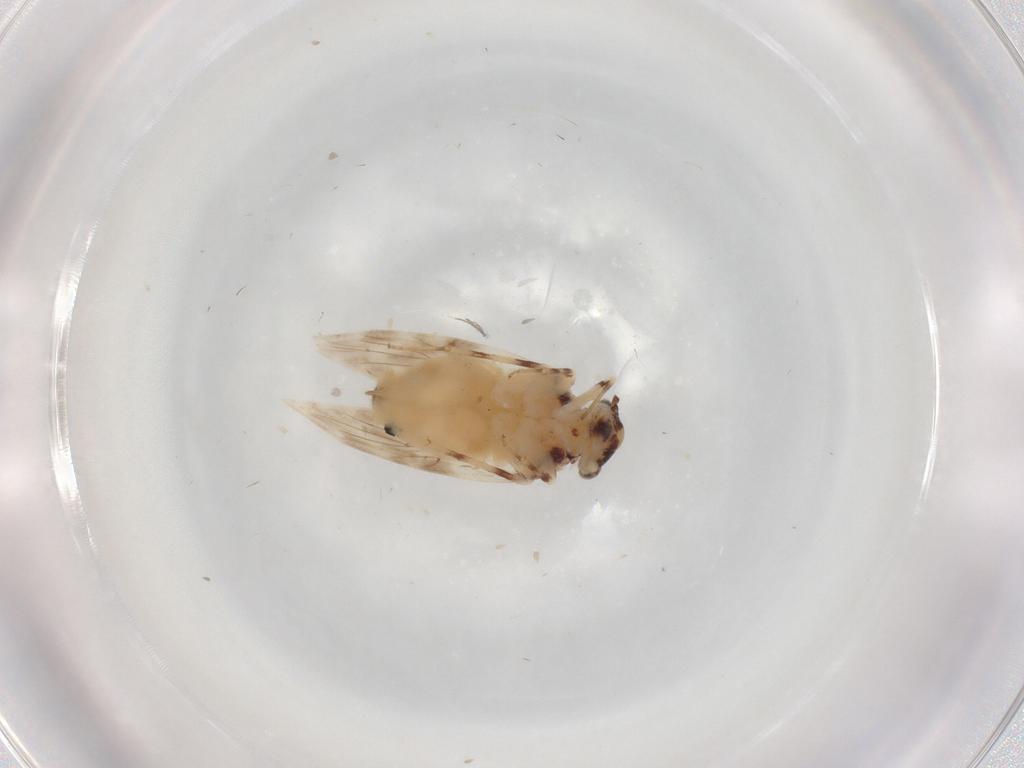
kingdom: Animalia
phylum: Arthropoda
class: Insecta
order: Psocodea
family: Lepidopsocidae
